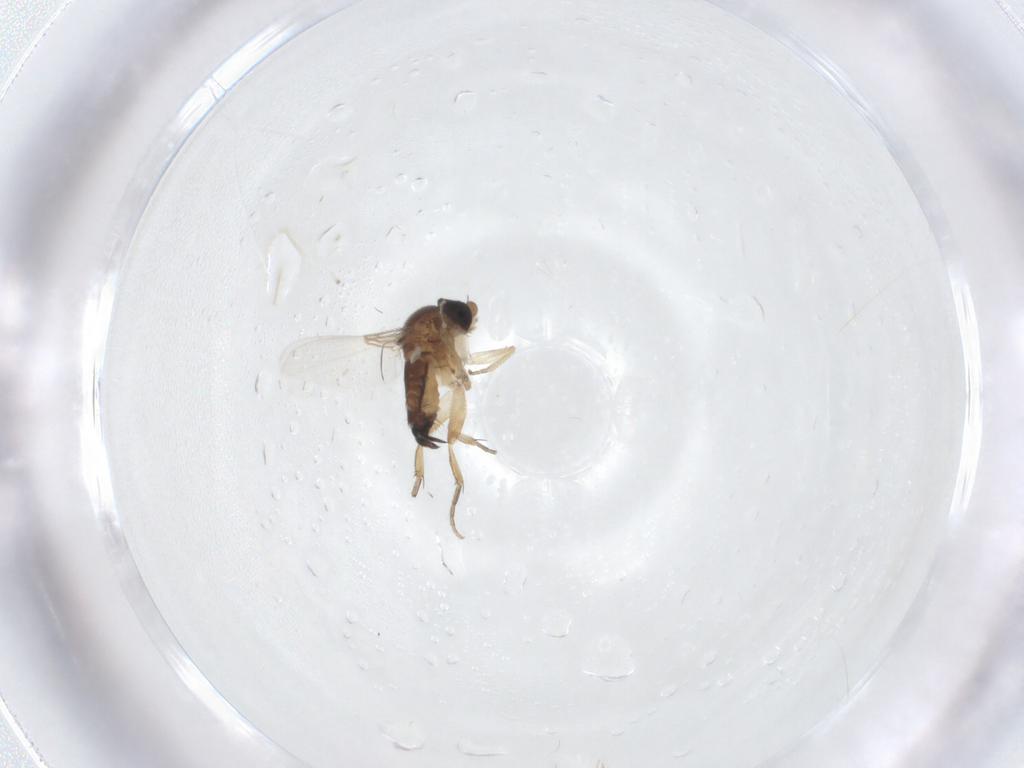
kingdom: Animalia
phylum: Arthropoda
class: Insecta
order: Diptera
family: Cecidomyiidae
